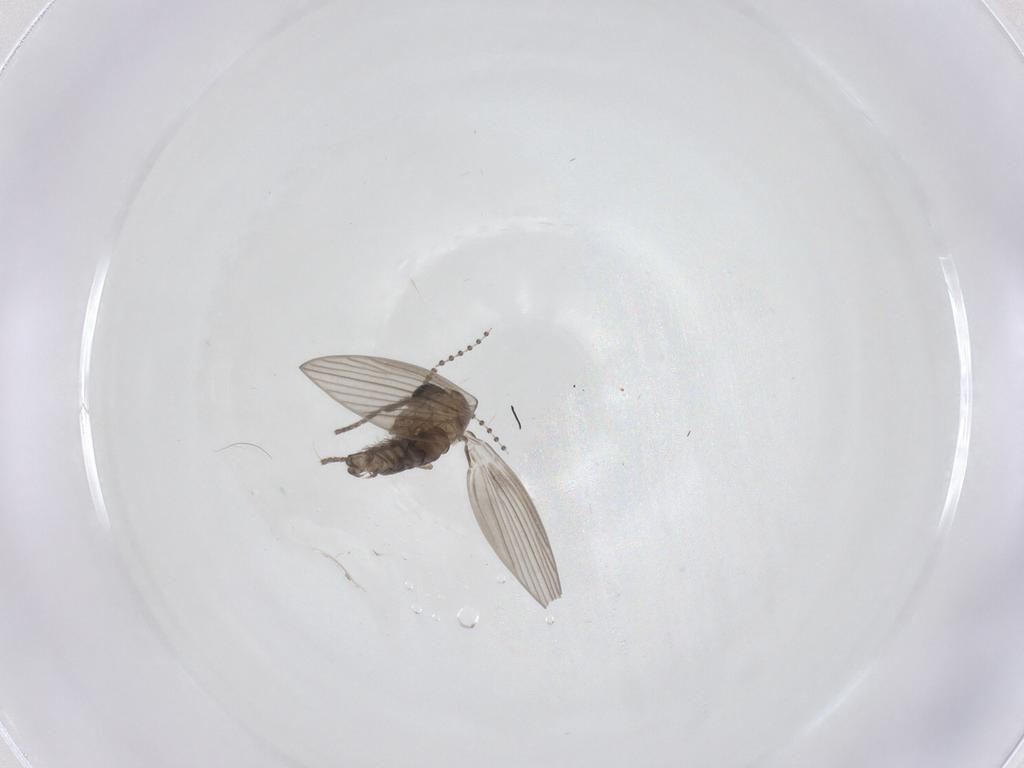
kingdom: Animalia
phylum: Arthropoda
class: Insecta
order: Diptera
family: Psychodidae
